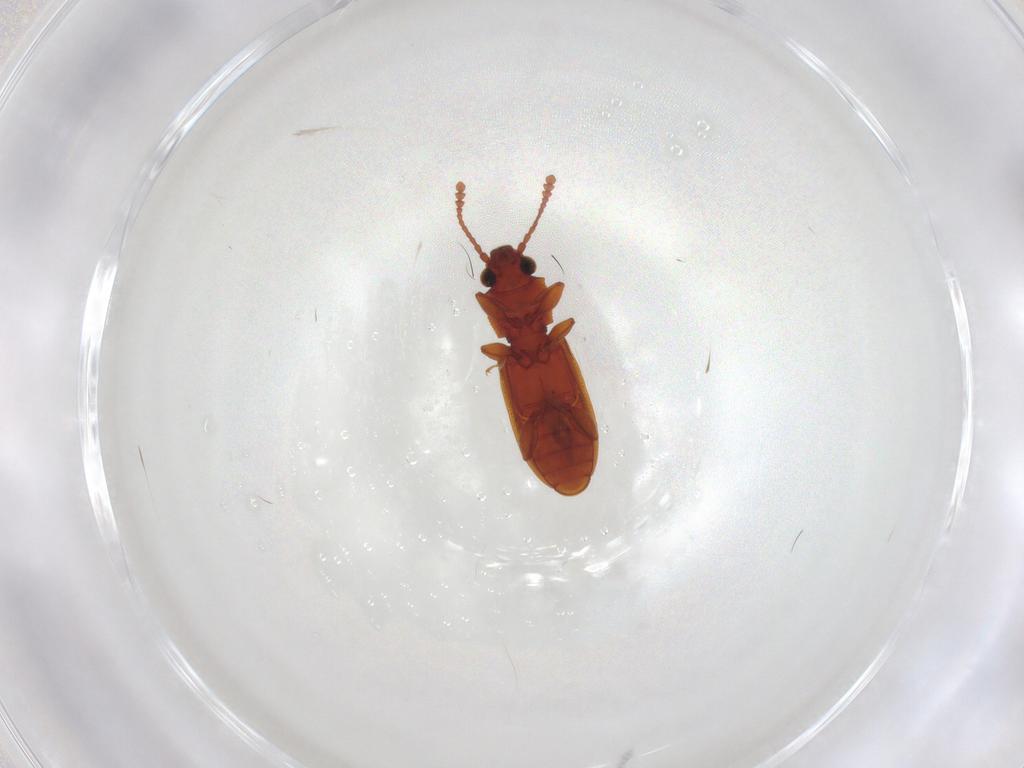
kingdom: Animalia
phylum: Arthropoda
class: Insecta
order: Coleoptera
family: Silvanidae
